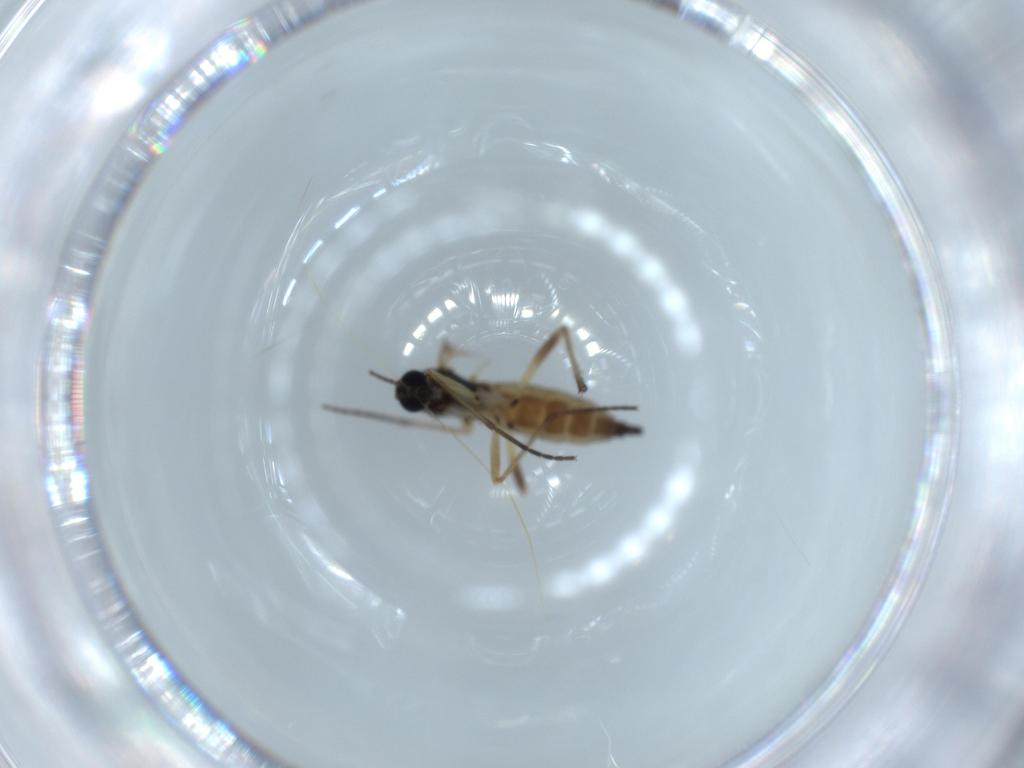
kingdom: Animalia
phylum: Arthropoda
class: Insecta
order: Diptera
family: Sciaridae
